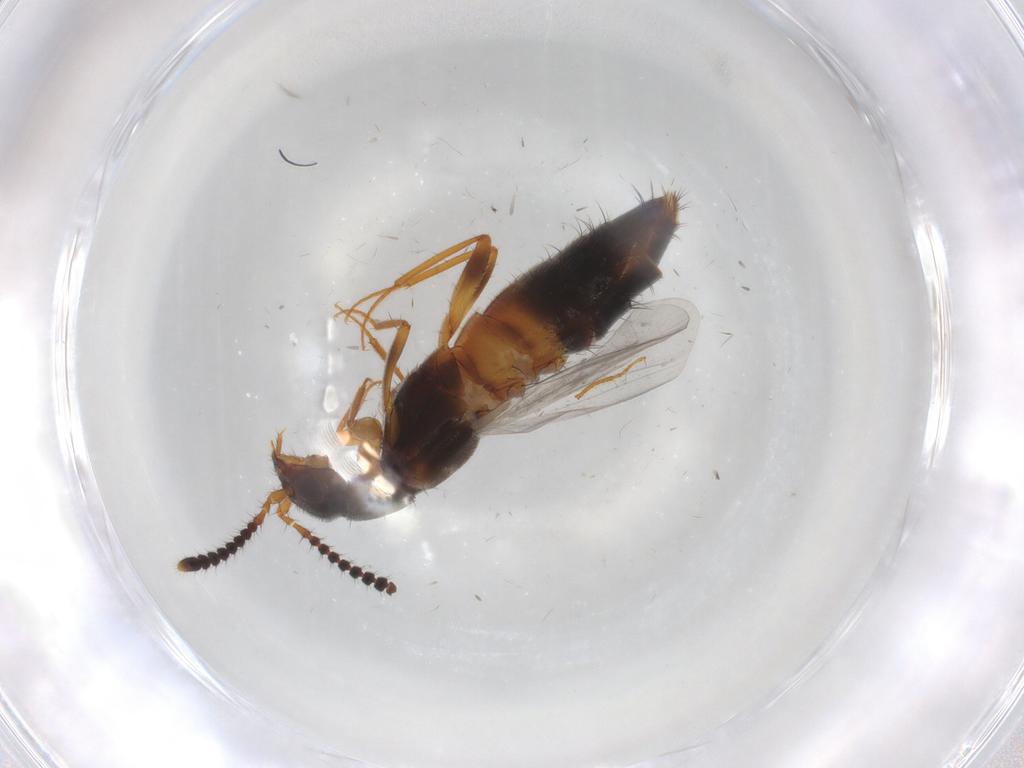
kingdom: Animalia
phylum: Arthropoda
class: Insecta
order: Coleoptera
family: Staphylinidae
